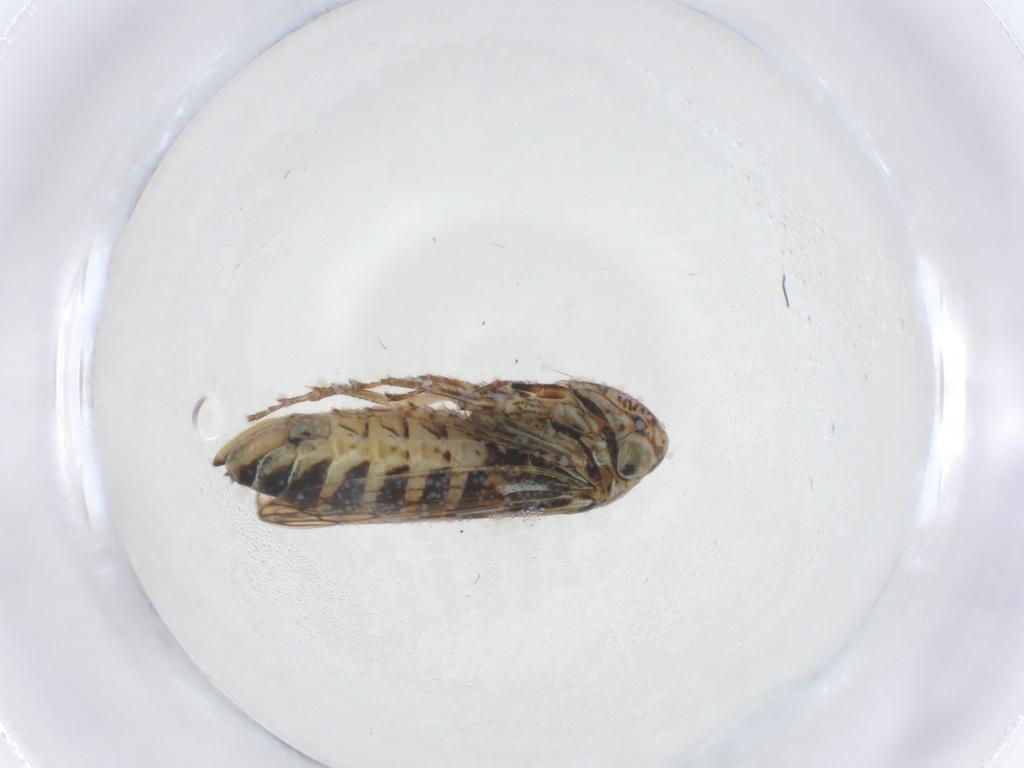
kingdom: Animalia
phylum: Arthropoda
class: Insecta
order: Hemiptera
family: Cicadellidae
